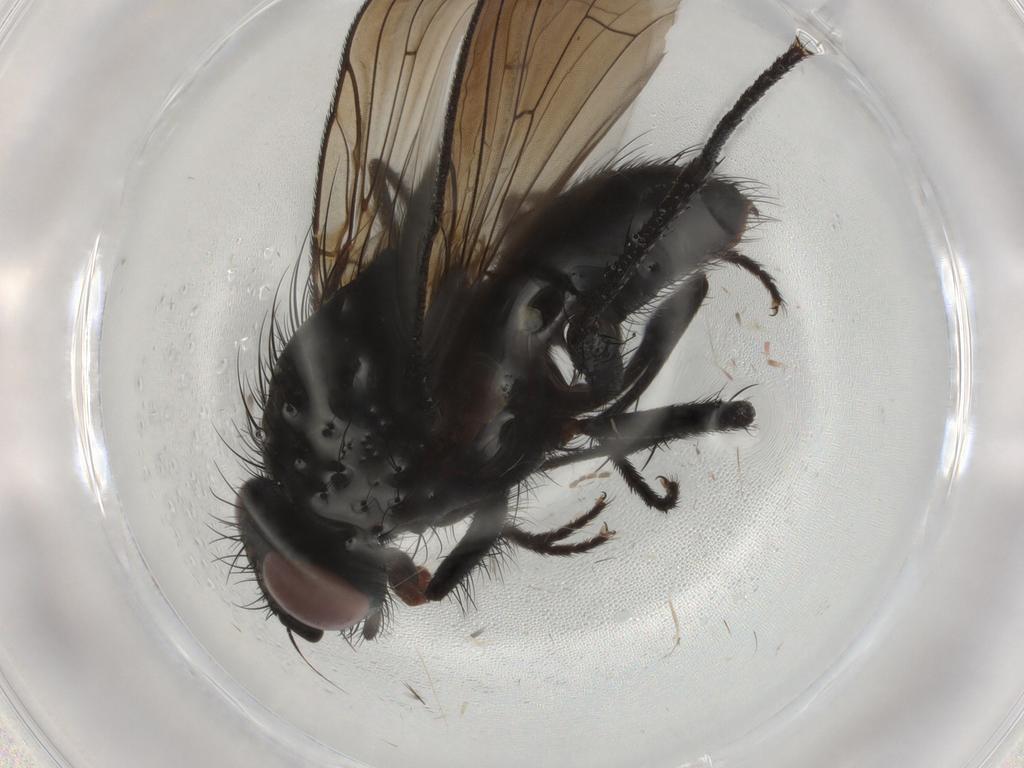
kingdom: Animalia
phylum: Arthropoda
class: Insecta
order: Diptera
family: Anthomyiidae
